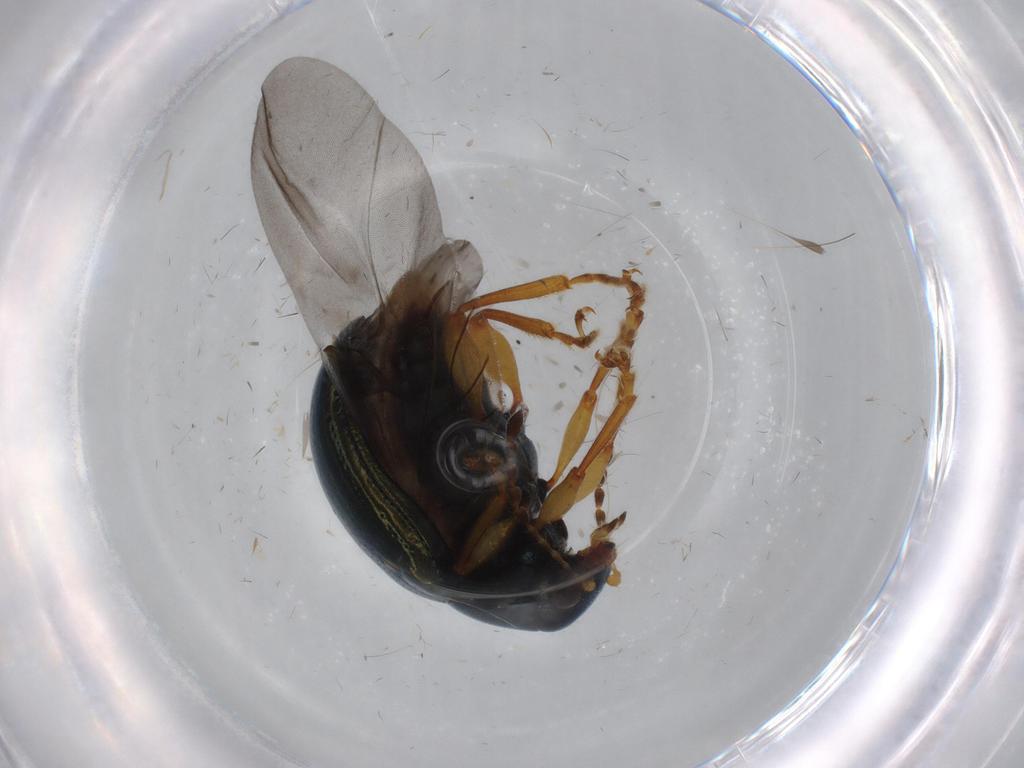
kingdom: Animalia
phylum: Arthropoda
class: Insecta
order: Coleoptera
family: Chrysomelidae
